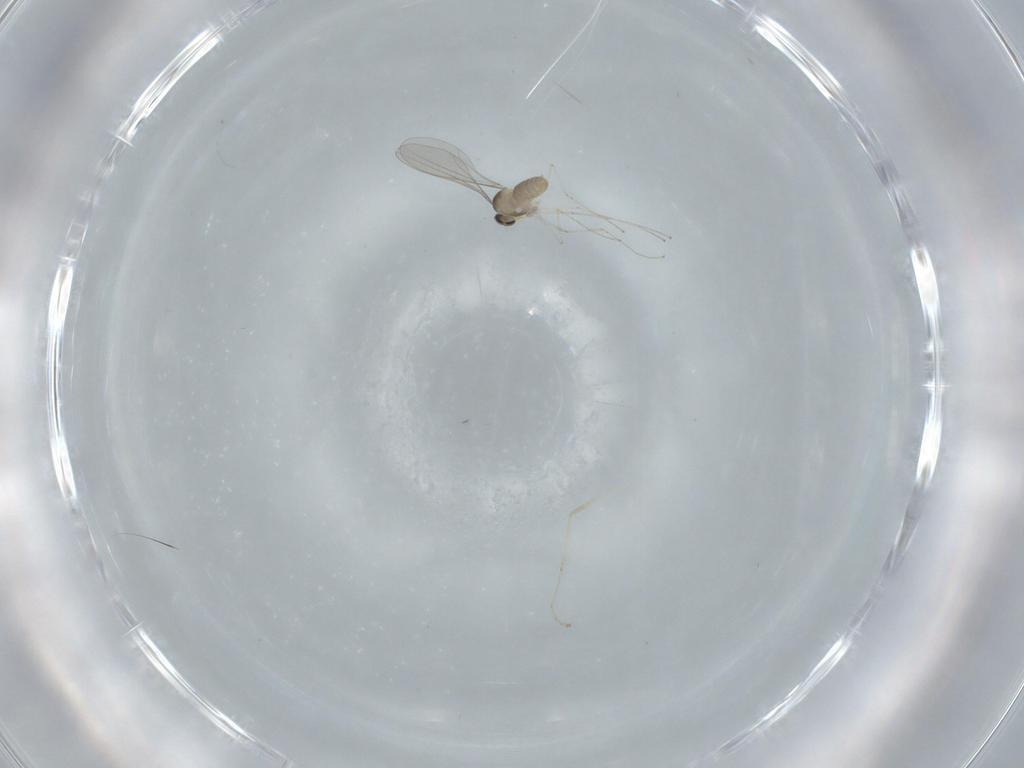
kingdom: Animalia
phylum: Arthropoda
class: Insecta
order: Diptera
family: Cecidomyiidae
